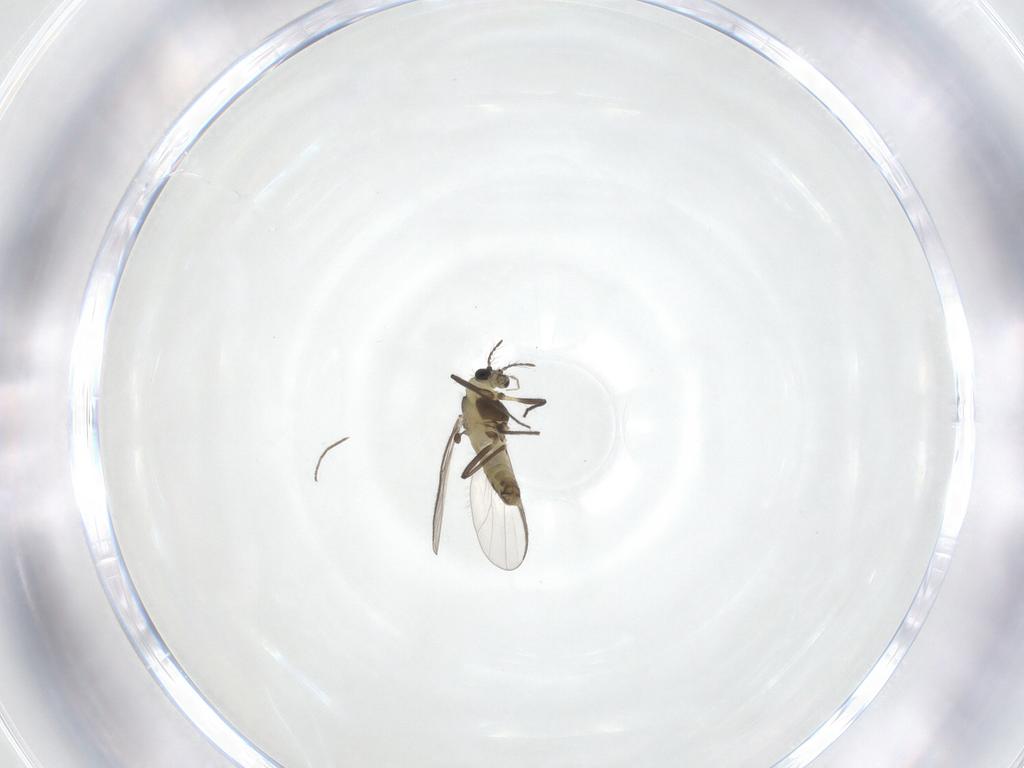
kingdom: Animalia
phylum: Arthropoda
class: Insecta
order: Diptera
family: Chironomidae
